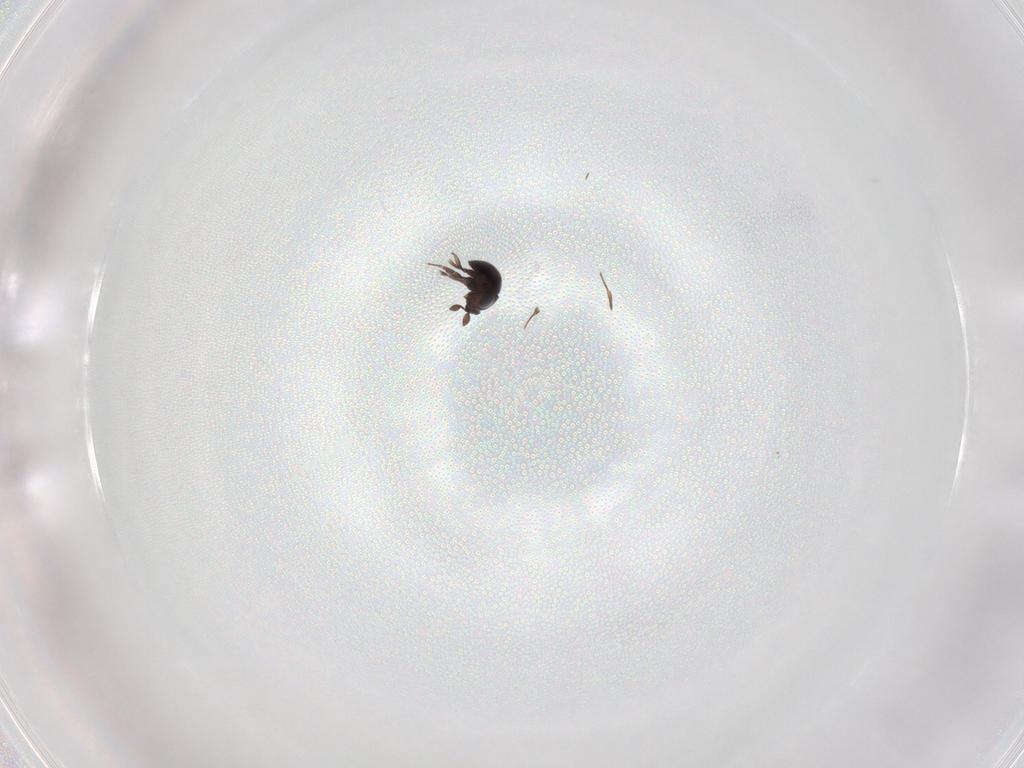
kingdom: Animalia
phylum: Arthropoda
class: Insecta
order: Hymenoptera
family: Scelionidae
